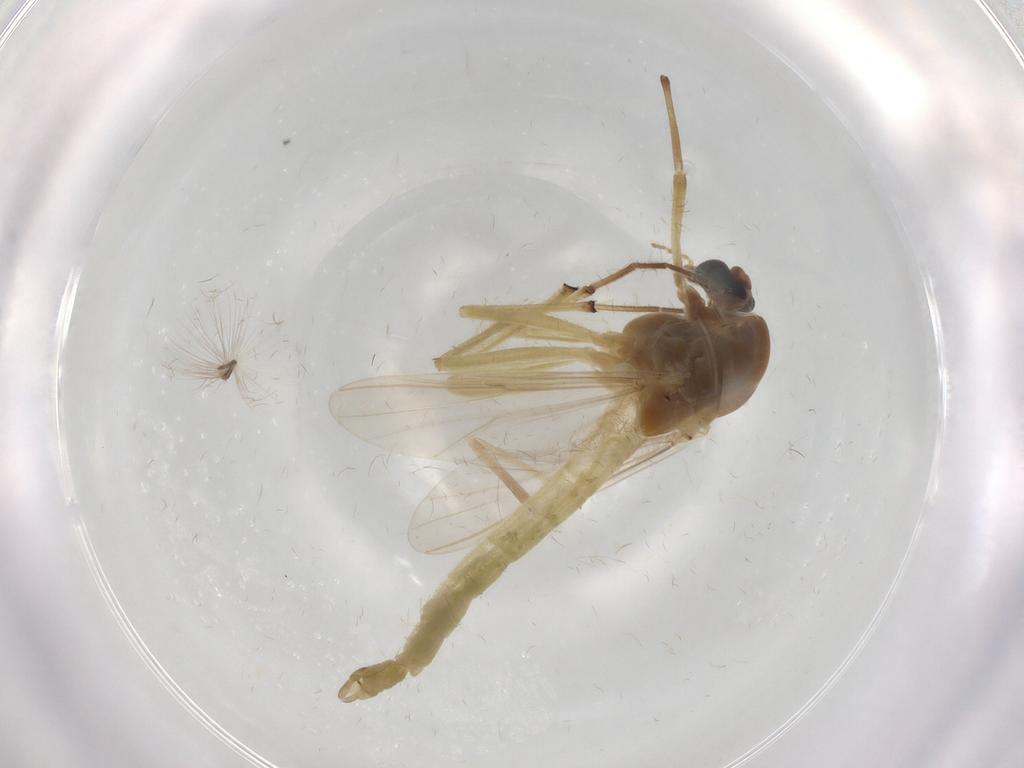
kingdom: Animalia
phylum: Arthropoda
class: Insecta
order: Diptera
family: Chironomidae
